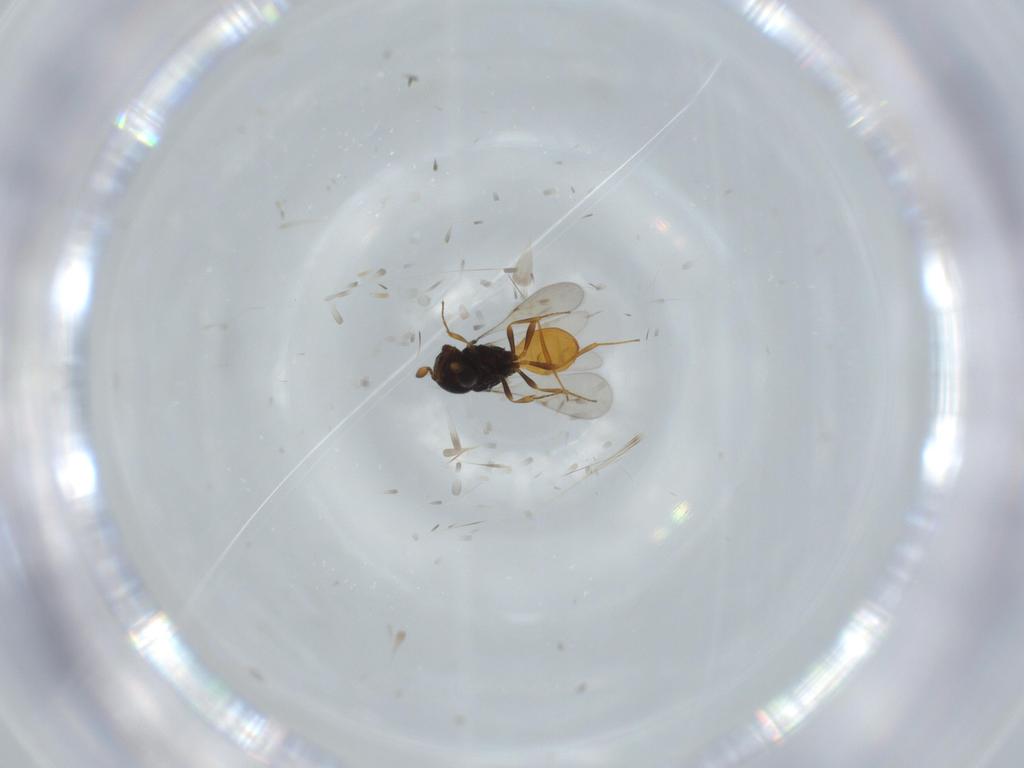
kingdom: Animalia
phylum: Arthropoda
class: Insecta
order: Hymenoptera
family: Scelionidae
